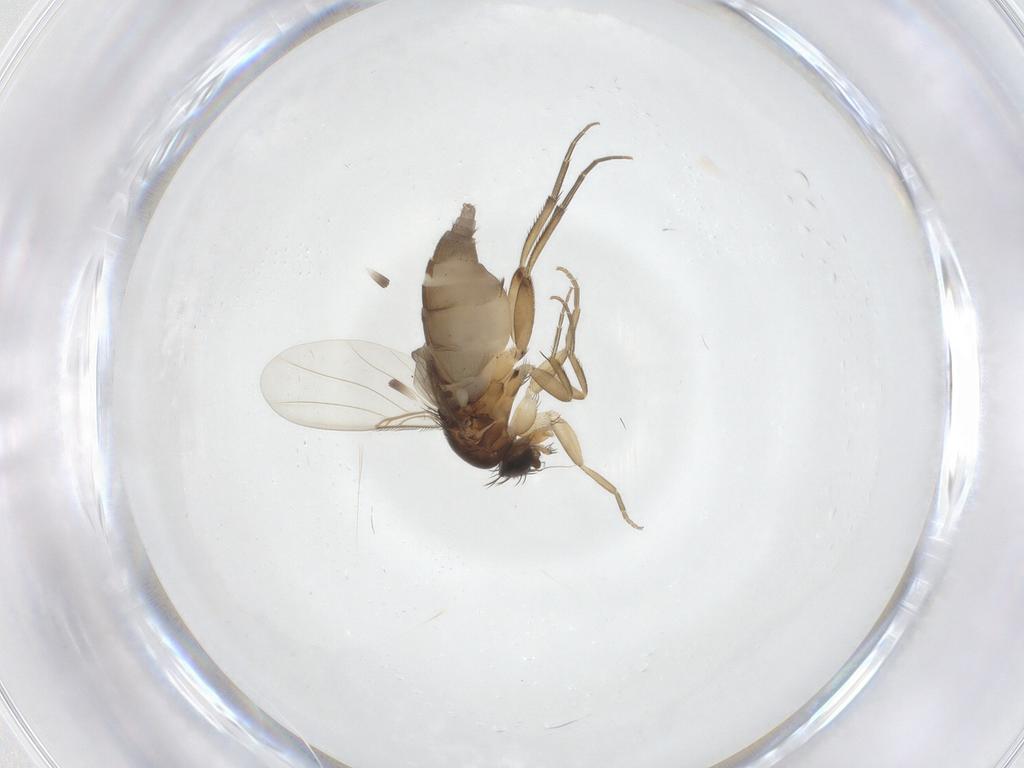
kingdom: Animalia
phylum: Arthropoda
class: Insecta
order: Diptera
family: Phoridae
